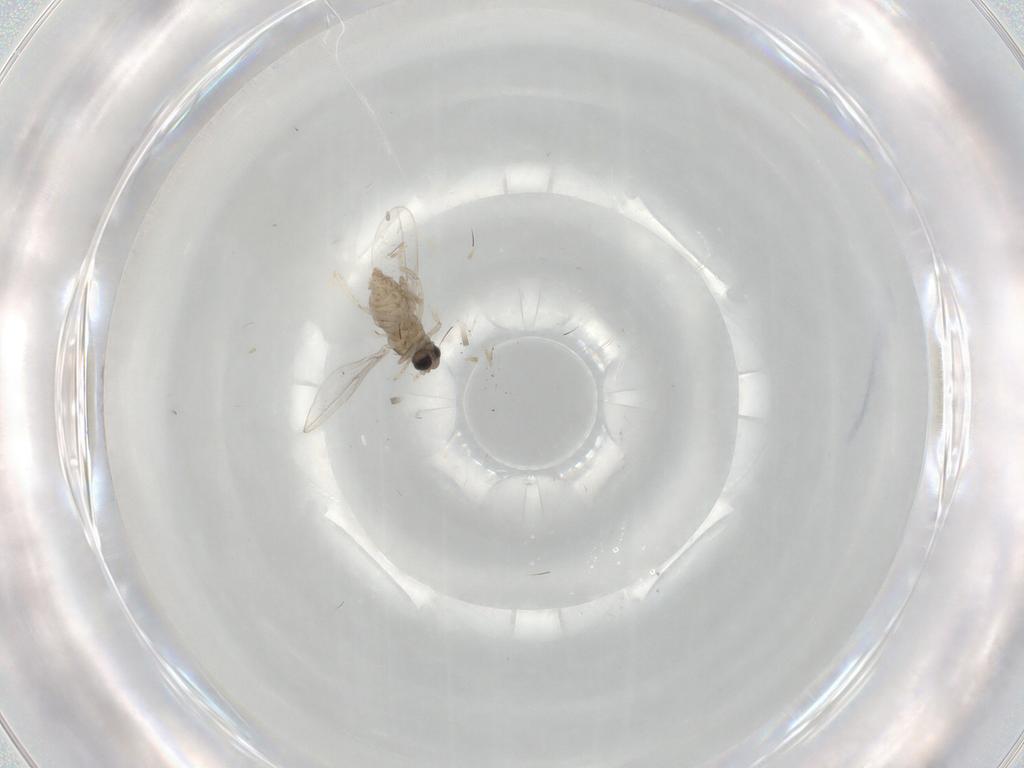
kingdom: Animalia
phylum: Arthropoda
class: Insecta
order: Diptera
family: Cecidomyiidae
